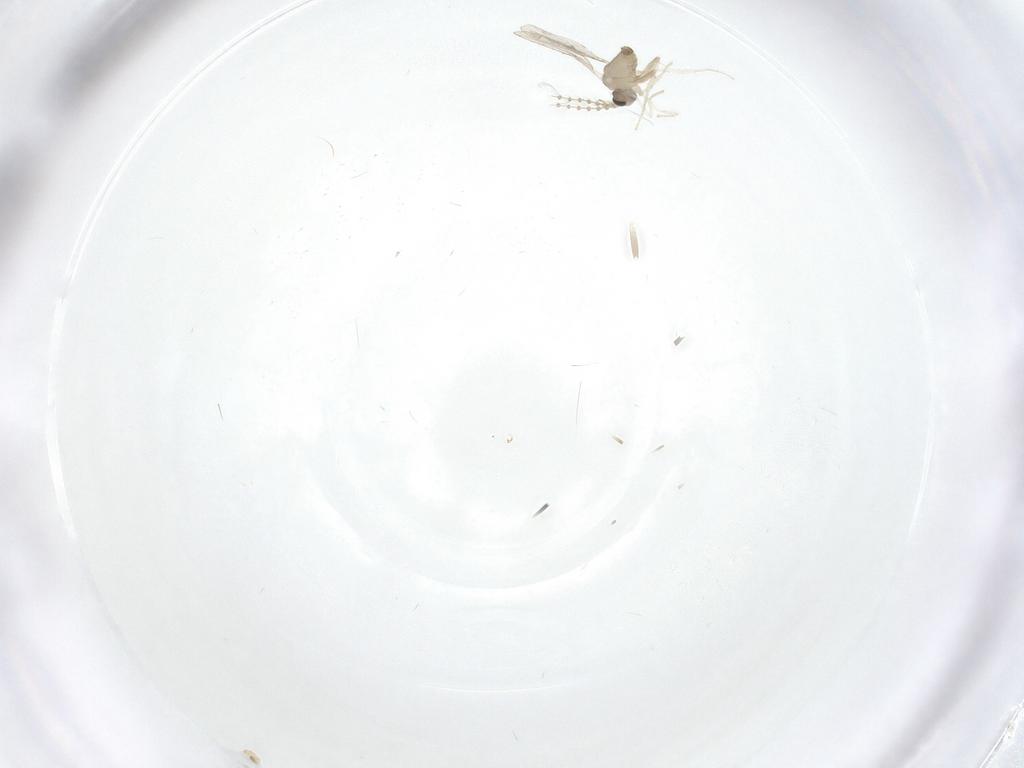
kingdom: Animalia
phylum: Arthropoda
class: Insecta
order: Diptera
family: Cecidomyiidae
